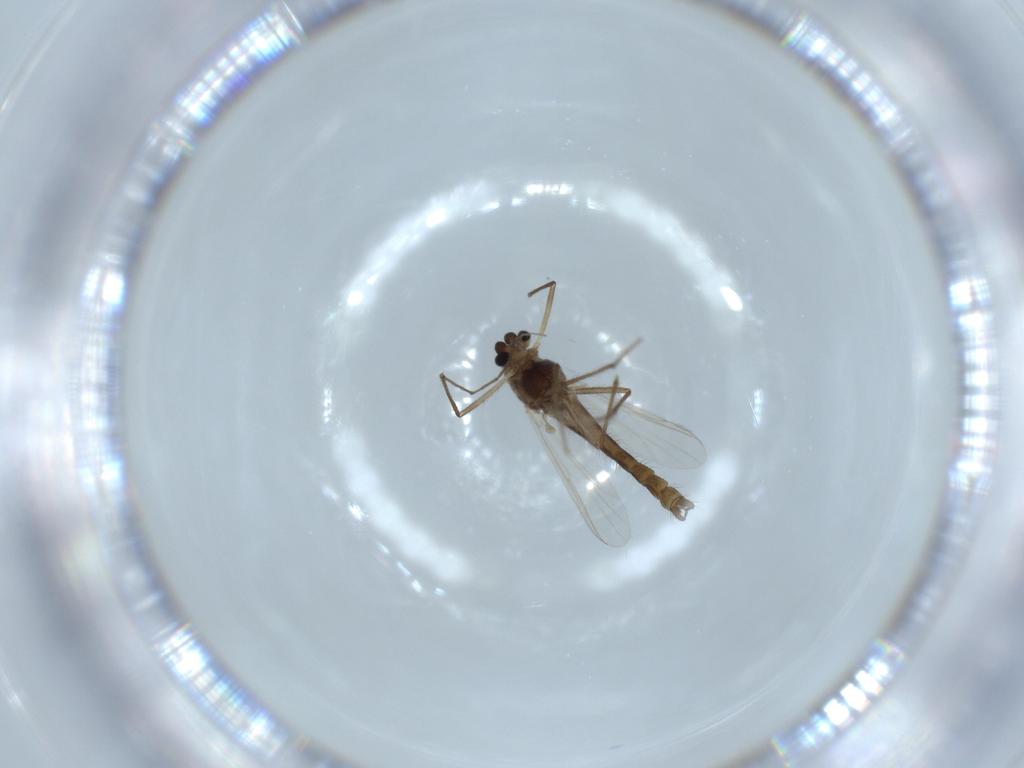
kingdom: Animalia
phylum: Arthropoda
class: Insecta
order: Diptera
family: Chironomidae
